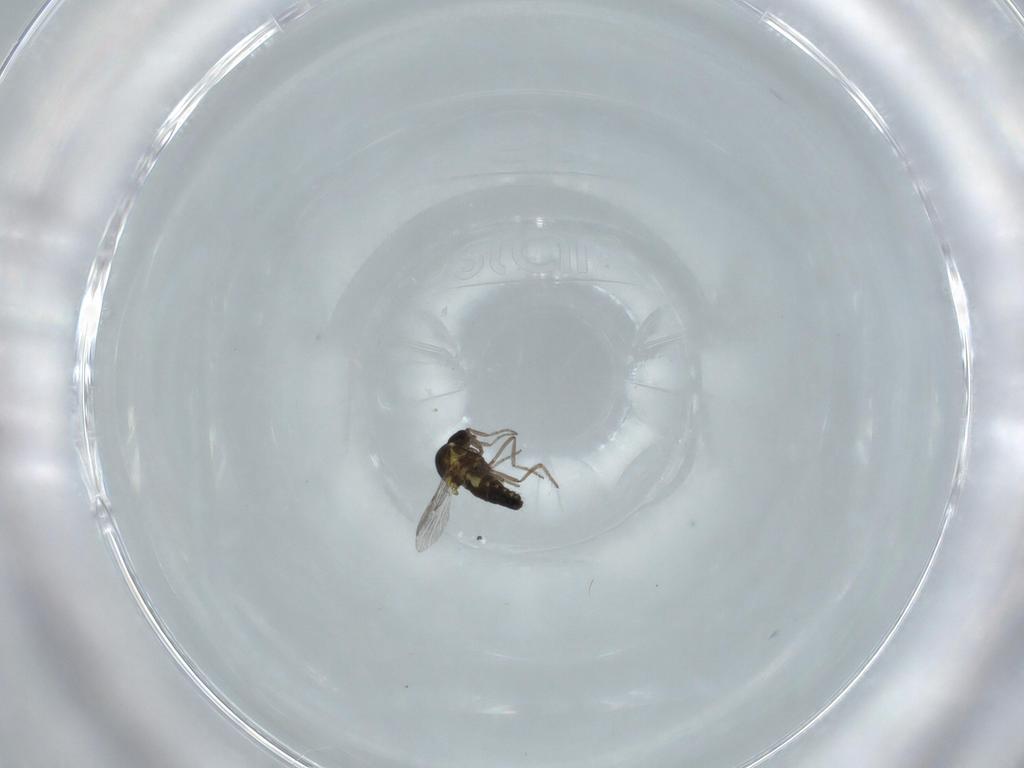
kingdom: Animalia
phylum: Arthropoda
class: Insecta
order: Diptera
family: Ceratopogonidae
